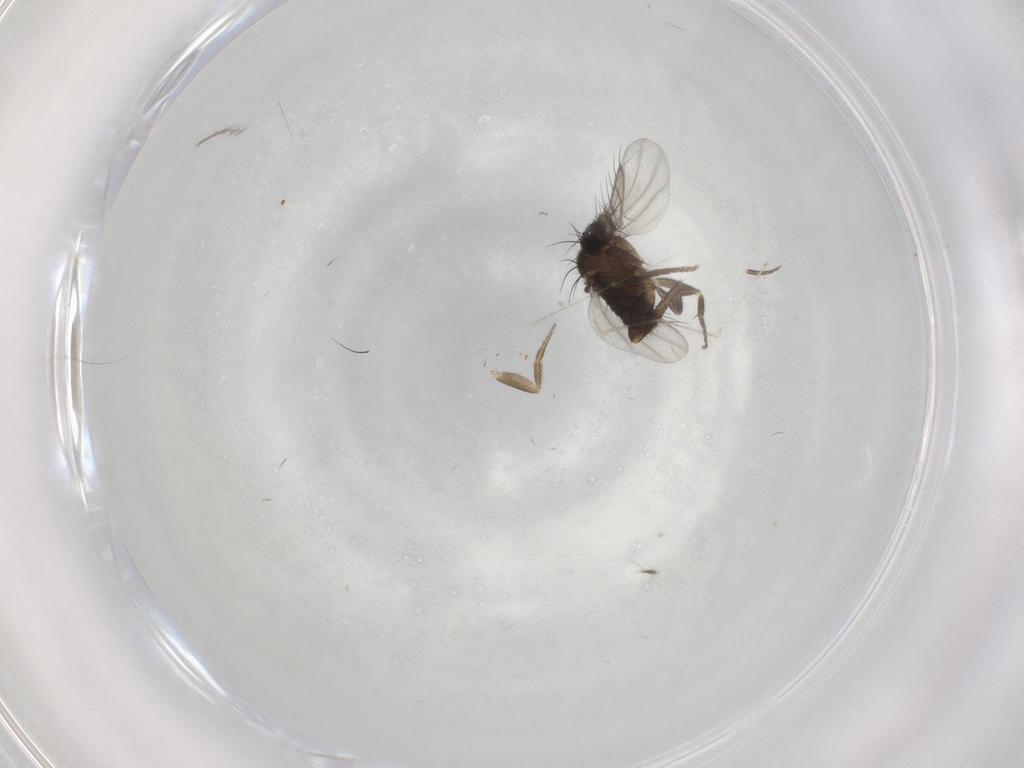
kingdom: Animalia
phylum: Arthropoda
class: Insecta
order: Diptera
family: Phoridae
